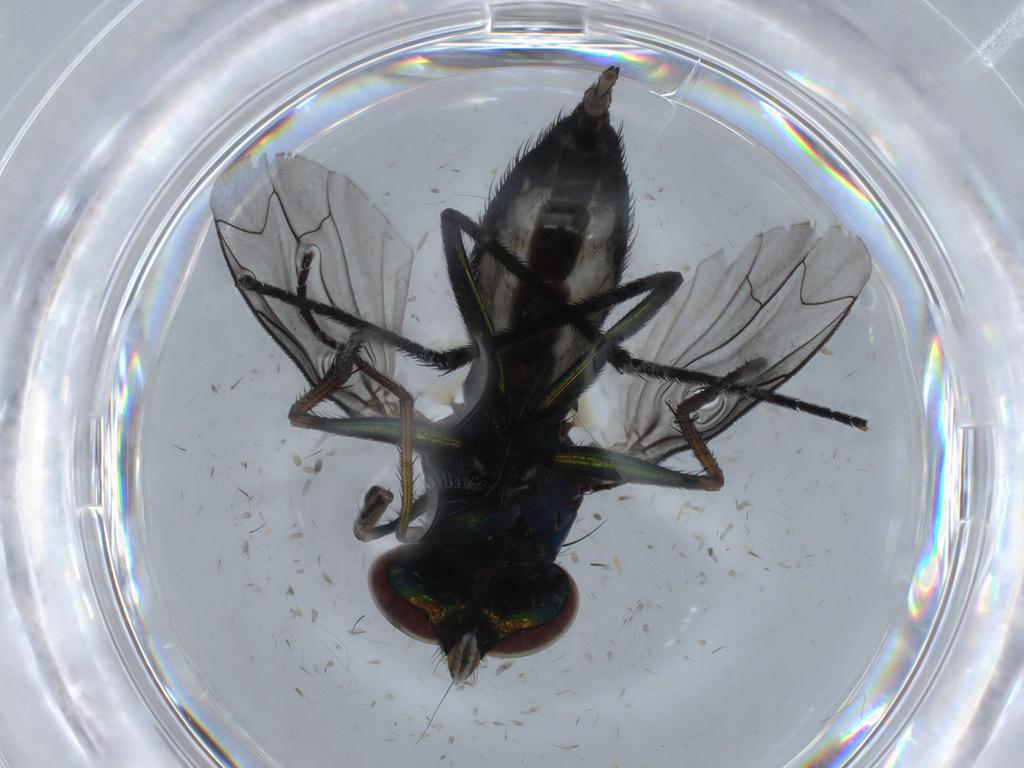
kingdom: Animalia
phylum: Arthropoda
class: Insecta
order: Diptera
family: Dolichopodidae
